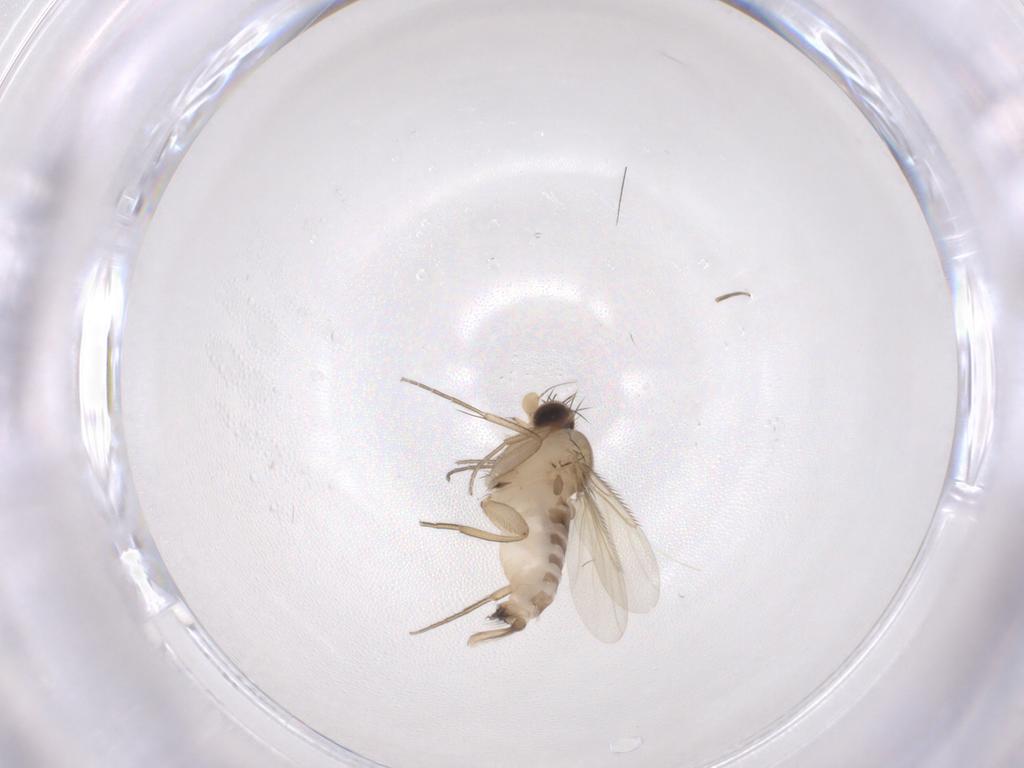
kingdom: Animalia
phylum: Arthropoda
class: Insecta
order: Diptera
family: Phoridae
